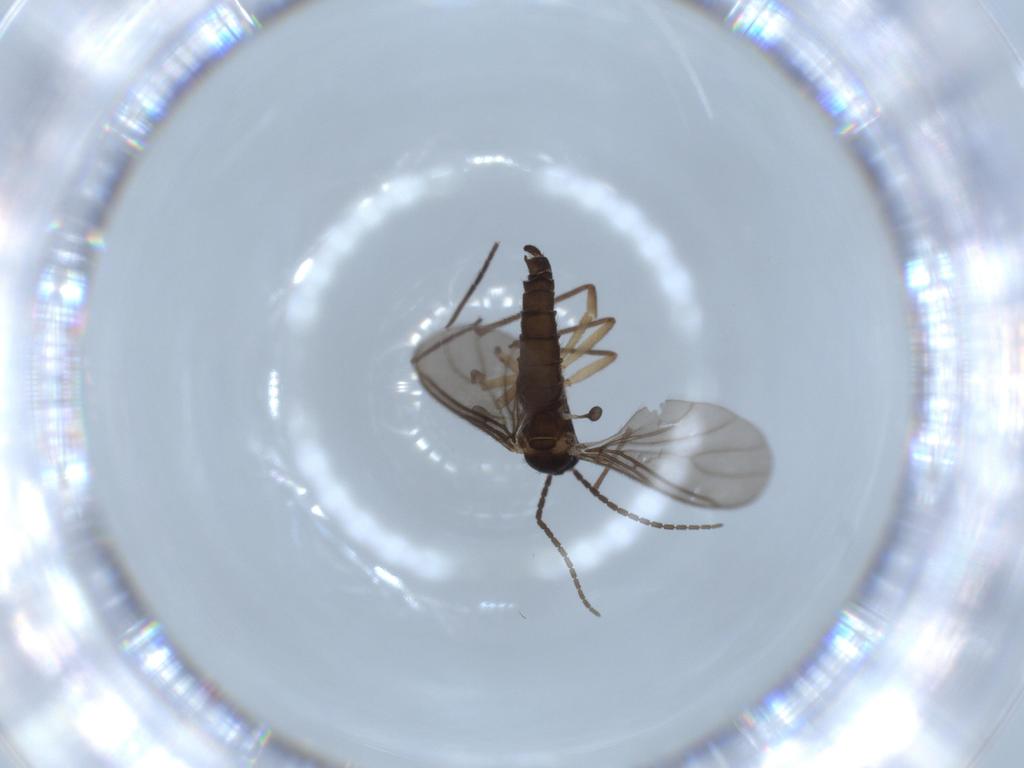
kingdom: Animalia
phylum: Arthropoda
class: Insecta
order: Diptera
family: Sciaridae
